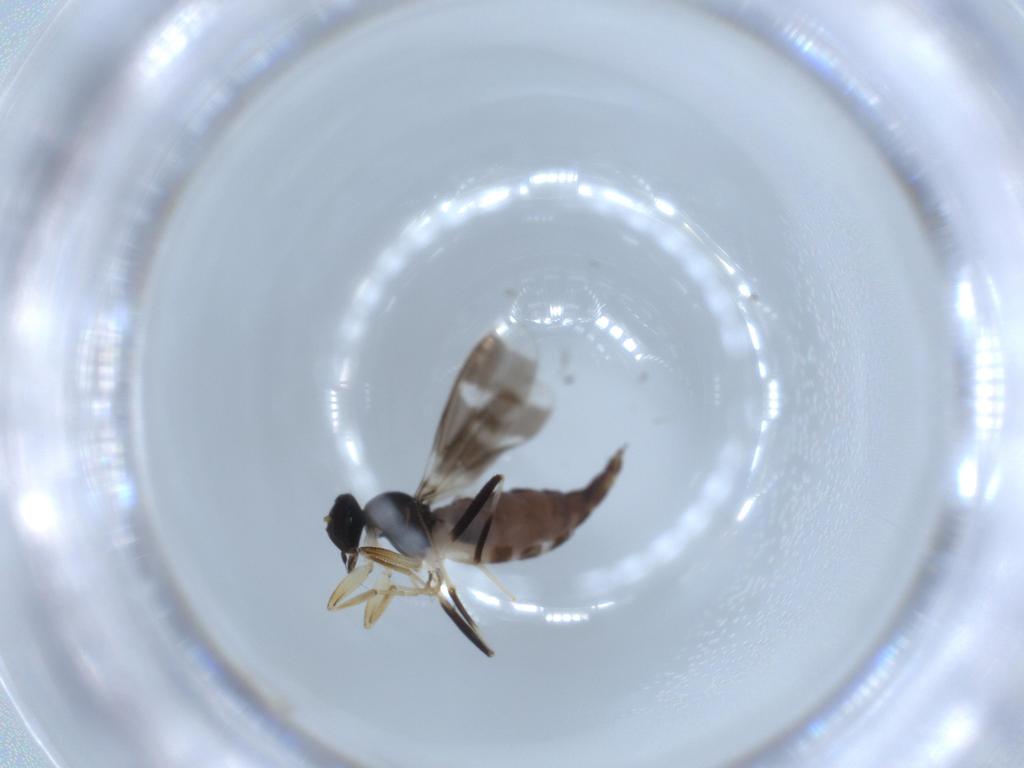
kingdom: Animalia
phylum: Arthropoda
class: Insecta
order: Diptera
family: Hybotidae
